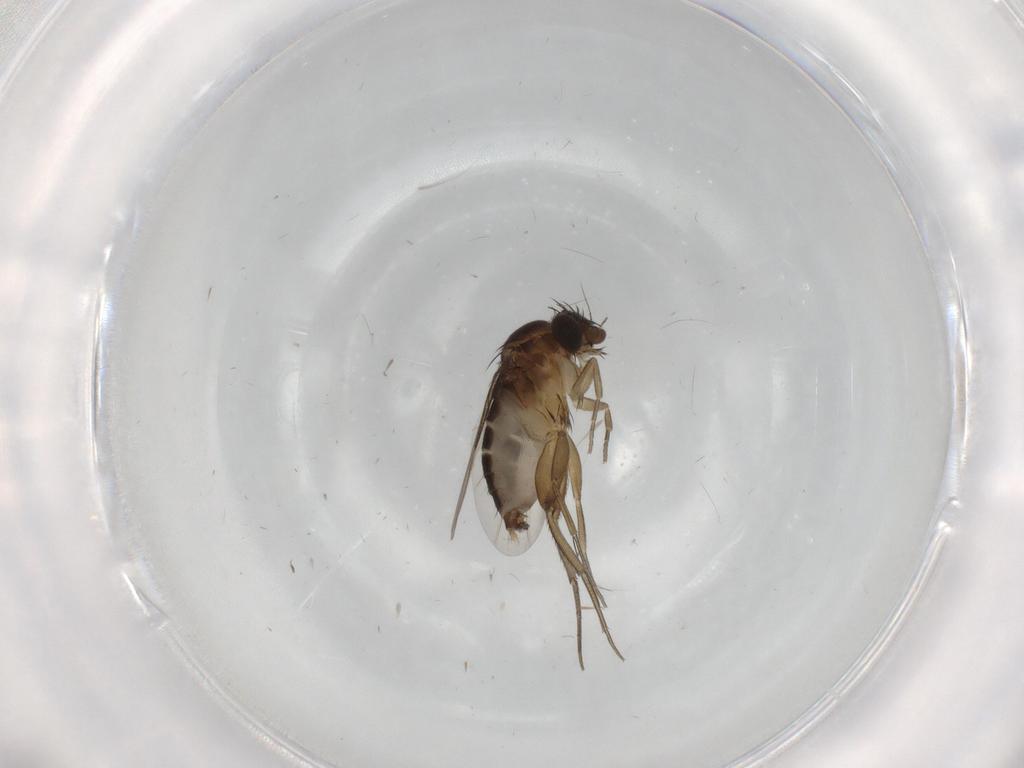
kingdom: Animalia
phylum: Arthropoda
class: Insecta
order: Diptera
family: Phoridae
